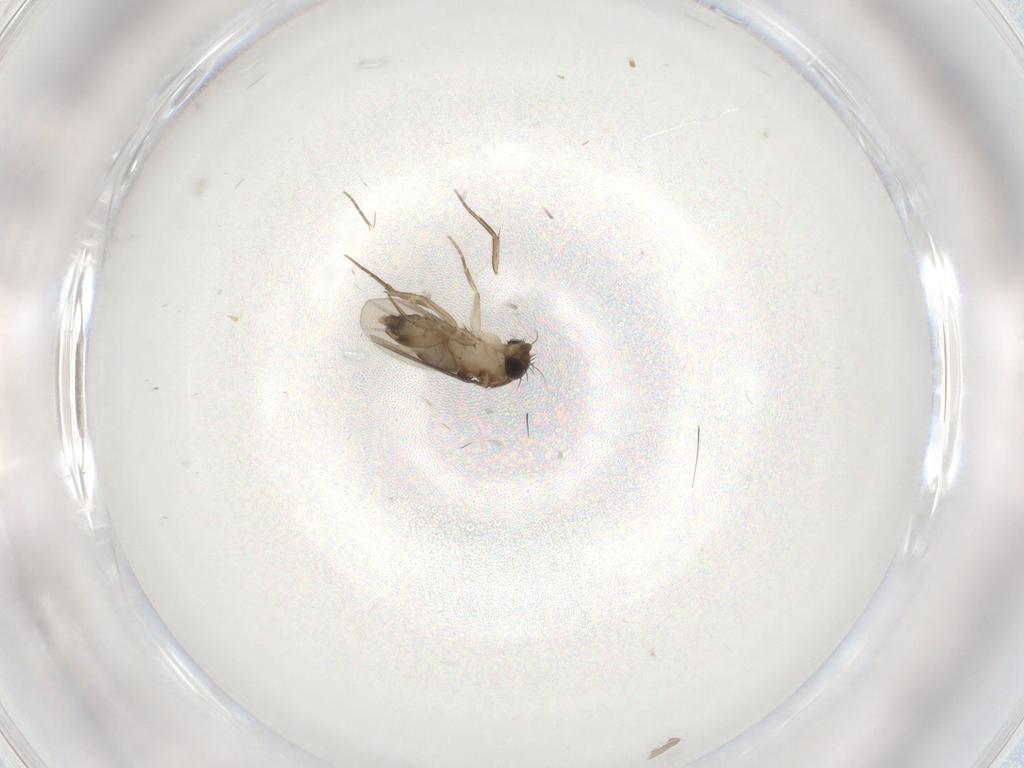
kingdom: Animalia
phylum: Arthropoda
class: Insecta
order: Diptera
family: Phoridae
